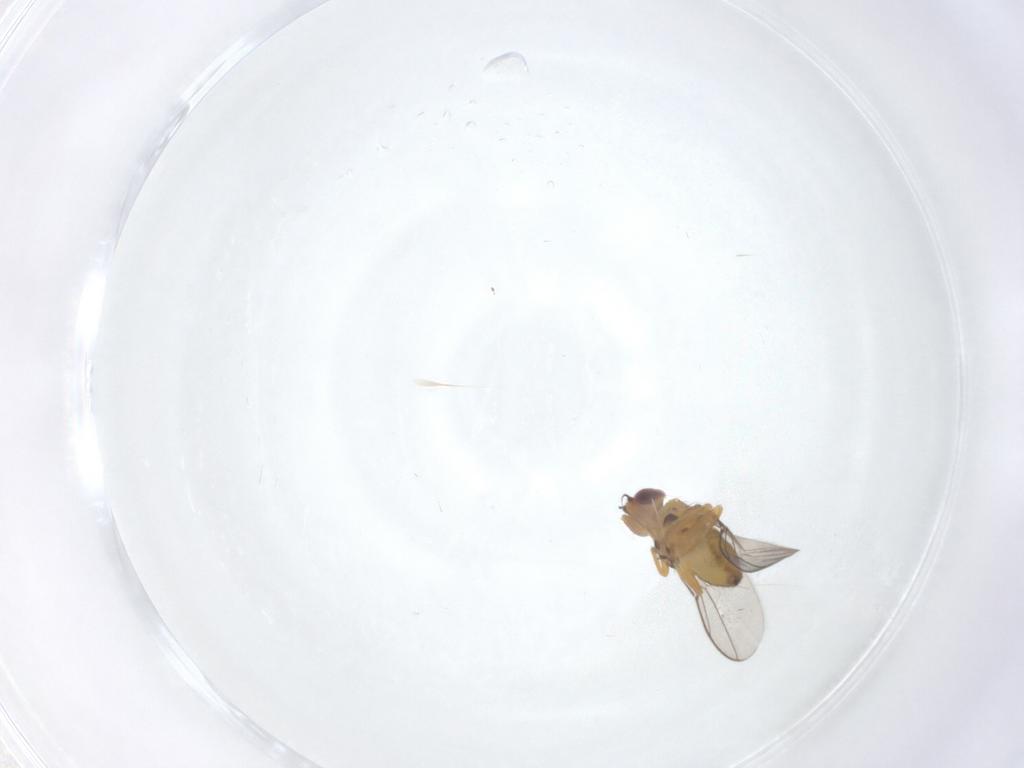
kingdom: Animalia
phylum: Arthropoda
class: Insecta
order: Diptera
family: Chloropidae
